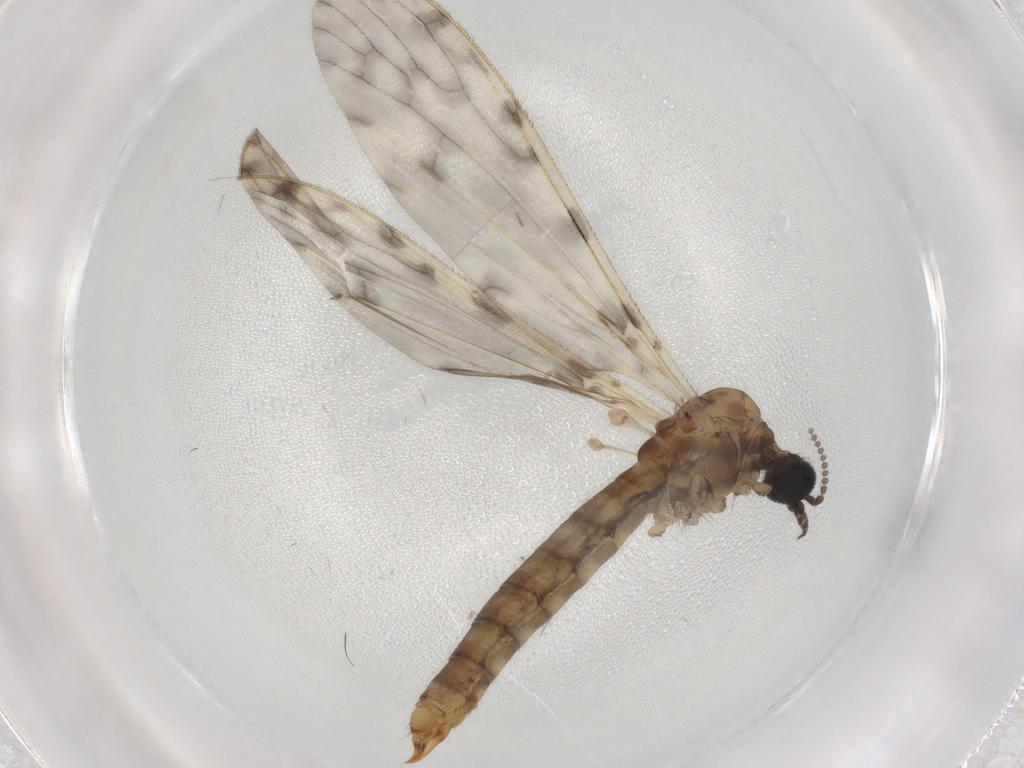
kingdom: Animalia
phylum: Arthropoda
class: Insecta
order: Diptera
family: Limoniidae
